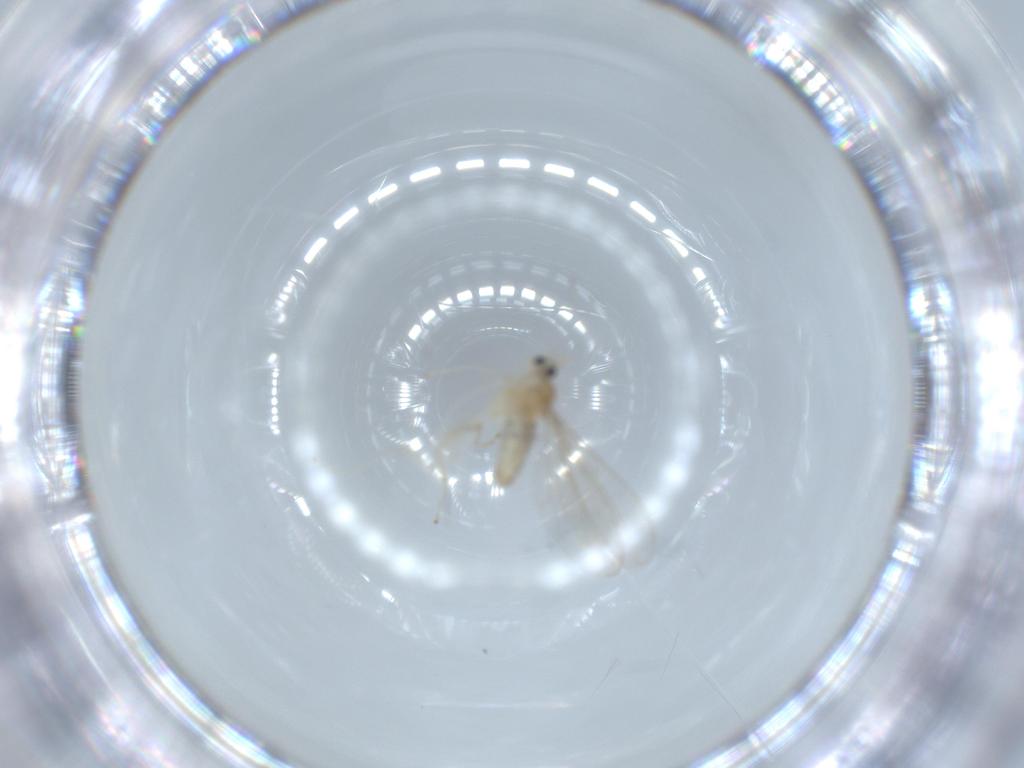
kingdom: Animalia
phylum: Arthropoda
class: Insecta
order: Diptera
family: Cecidomyiidae
